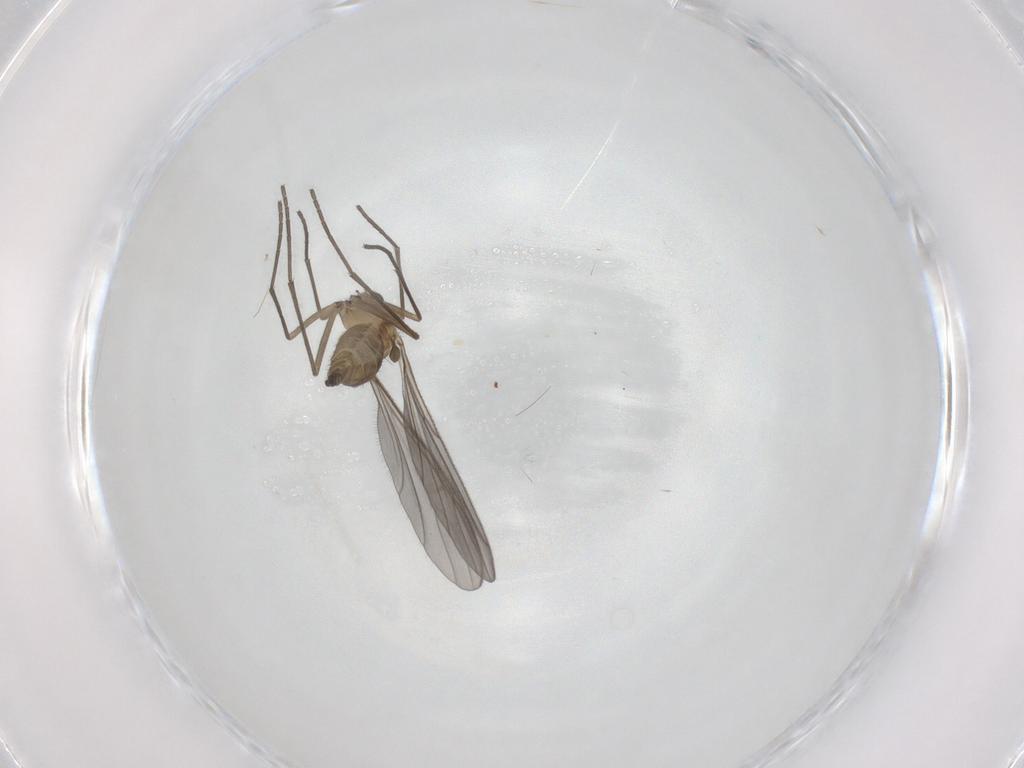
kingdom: Animalia
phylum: Arthropoda
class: Insecta
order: Diptera
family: Sciaridae
